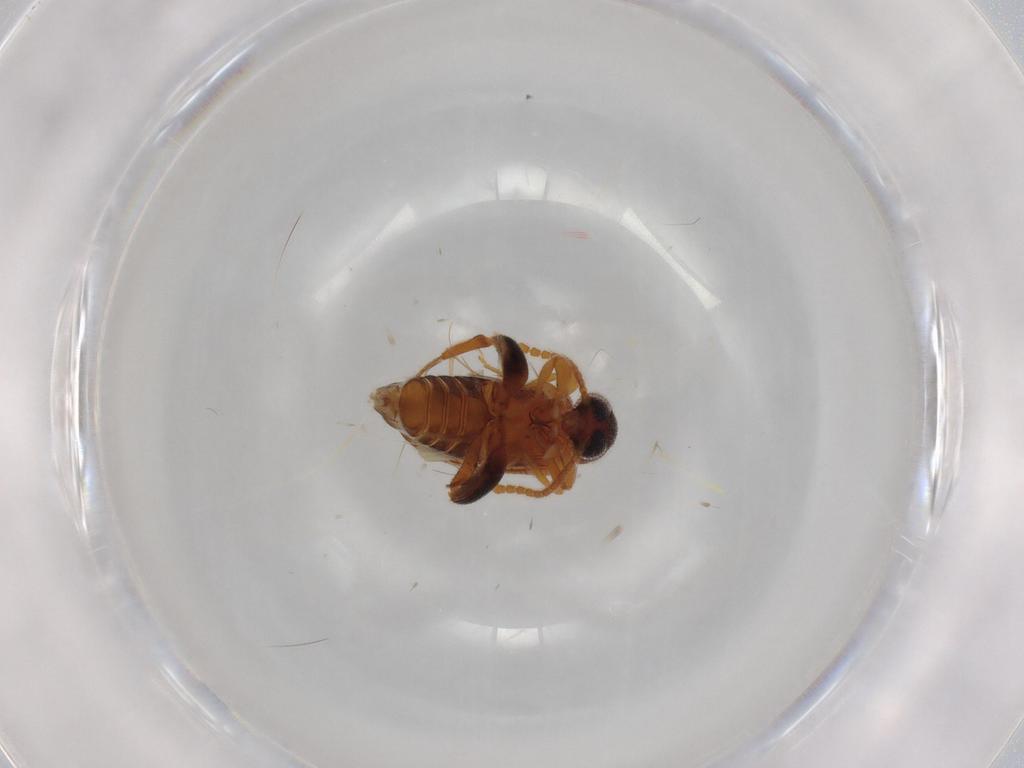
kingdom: Animalia
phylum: Arthropoda
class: Insecta
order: Coleoptera
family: Aderidae
